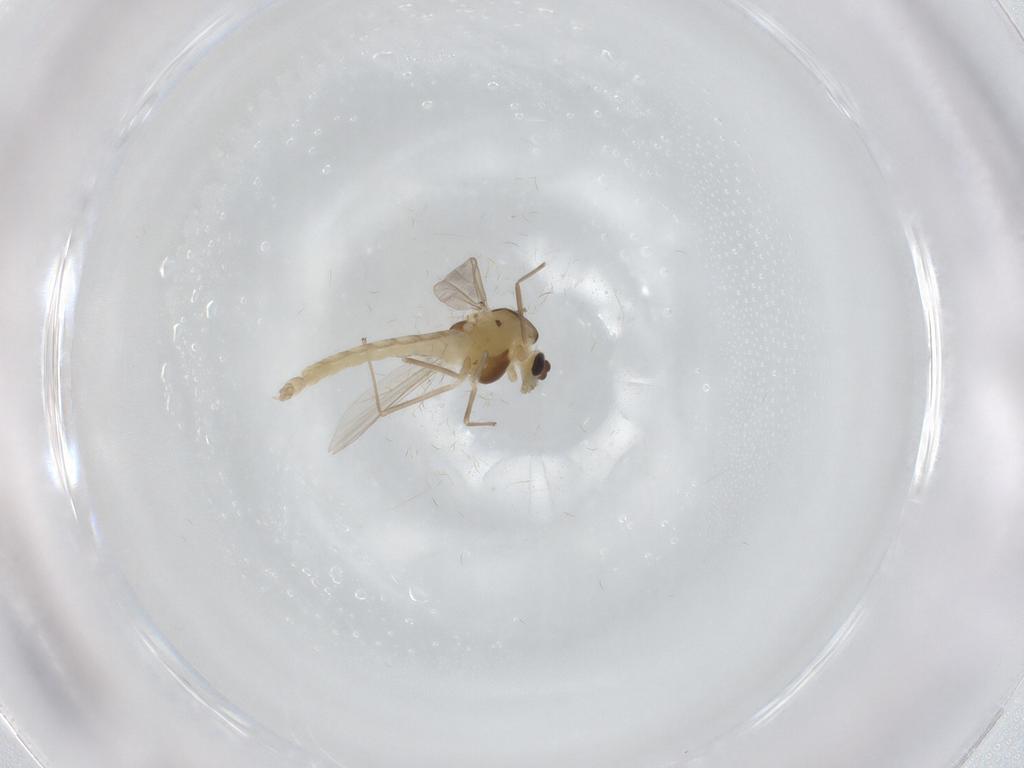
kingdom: Animalia
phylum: Arthropoda
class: Insecta
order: Diptera
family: Chironomidae
